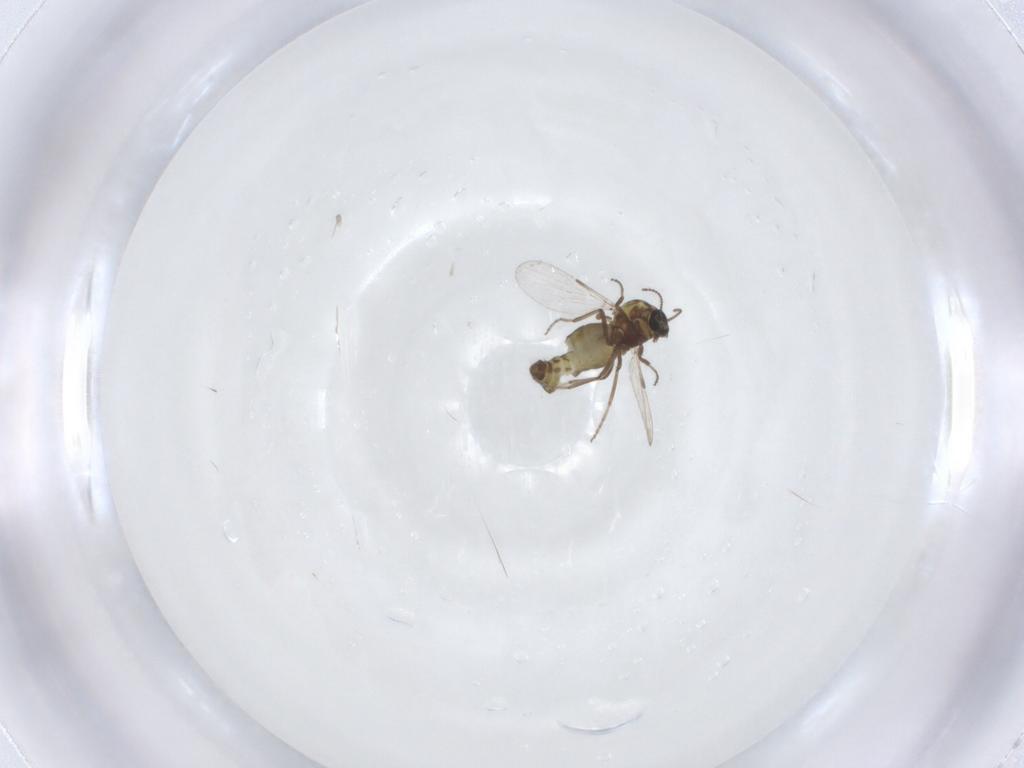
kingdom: Animalia
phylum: Arthropoda
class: Insecta
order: Diptera
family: Ceratopogonidae
